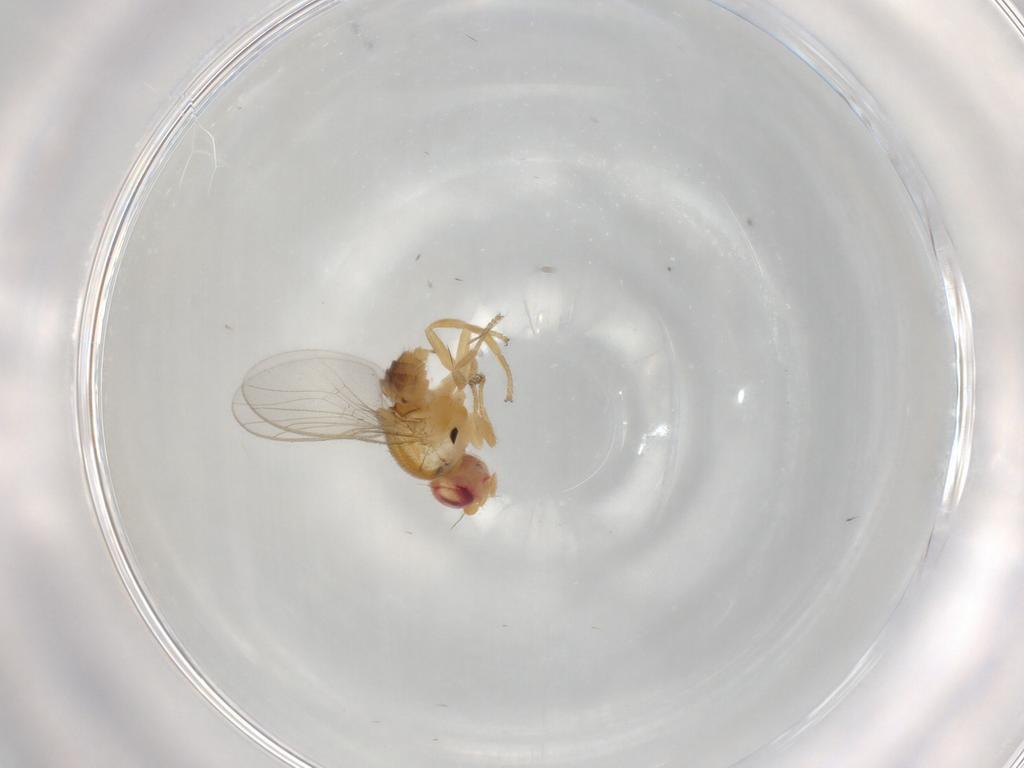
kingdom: Animalia
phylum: Arthropoda
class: Insecta
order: Diptera
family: Chloropidae
